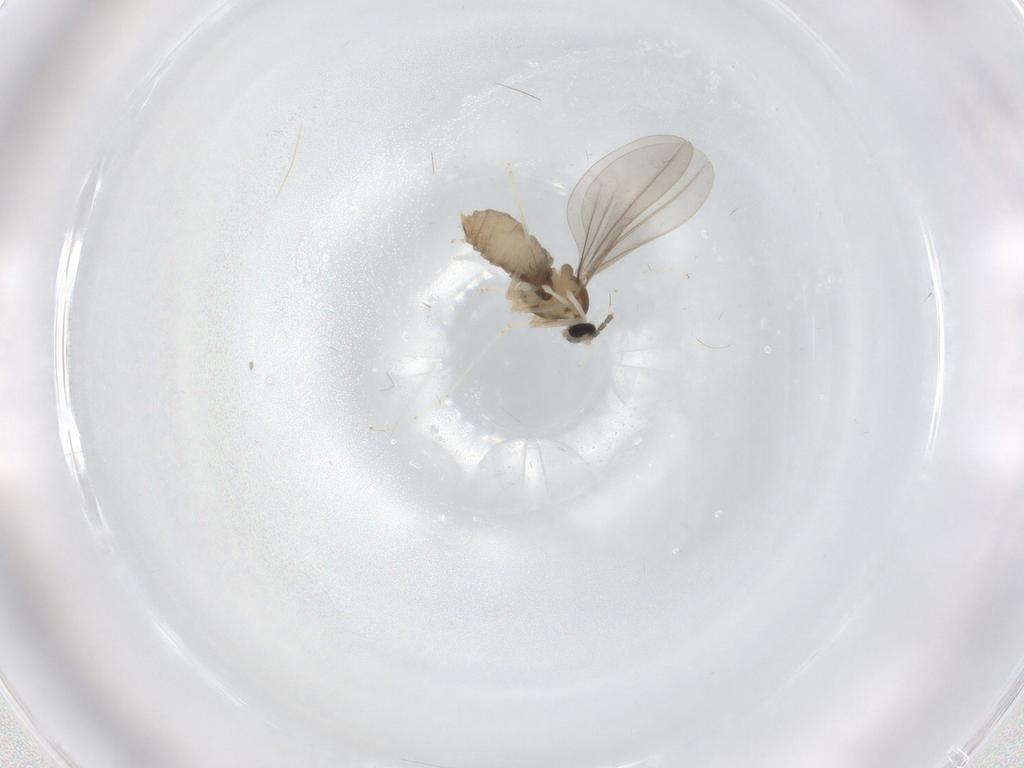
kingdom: Animalia
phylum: Arthropoda
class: Insecta
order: Diptera
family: Cecidomyiidae
